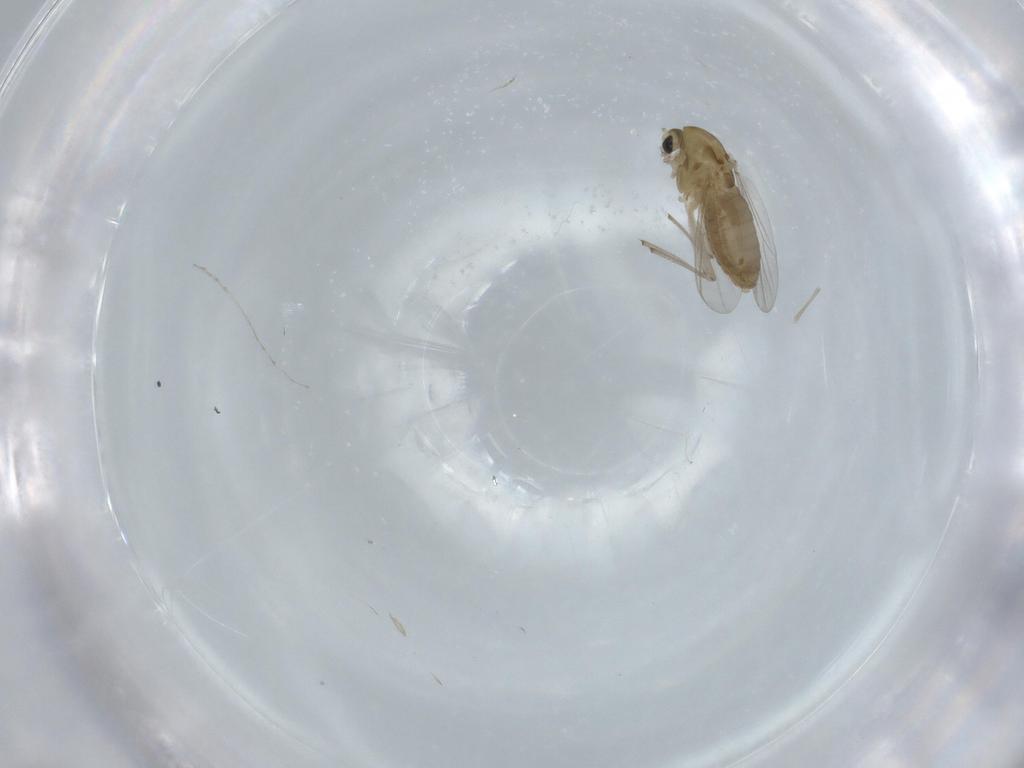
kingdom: Animalia
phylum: Arthropoda
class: Insecta
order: Diptera
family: Chironomidae
